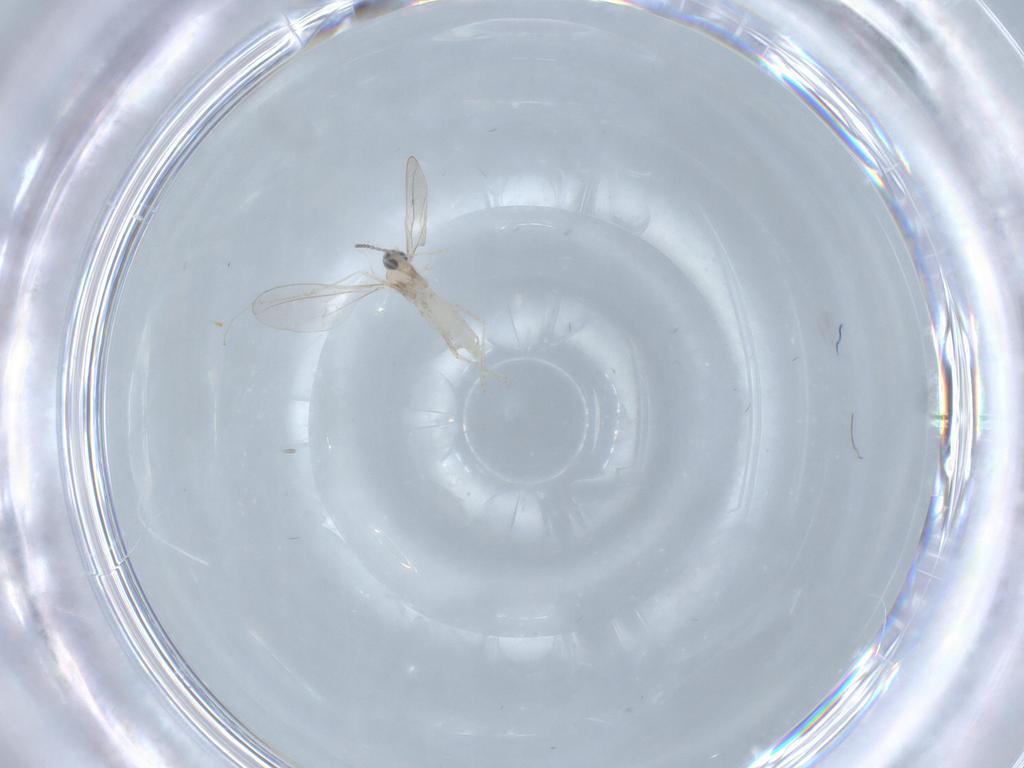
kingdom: Animalia
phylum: Arthropoda
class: Insecta
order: Diptera
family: Cecidomyiidae
